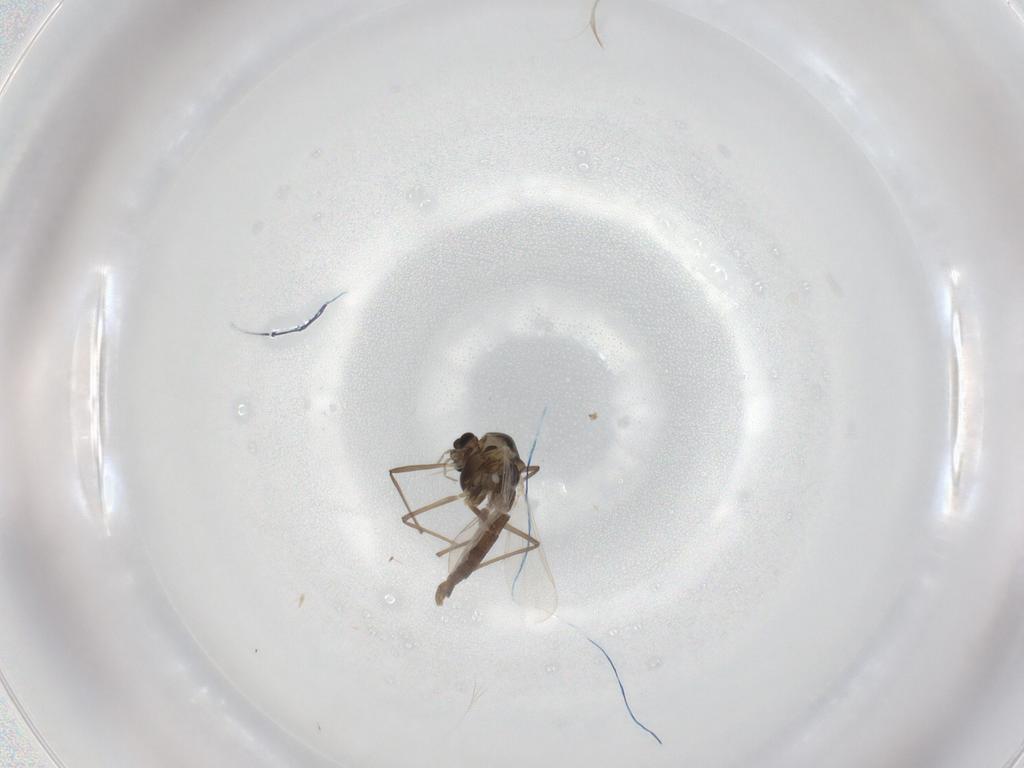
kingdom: Animalia
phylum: Arthropoda
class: Insecta
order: Diptera
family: Chironomidae
